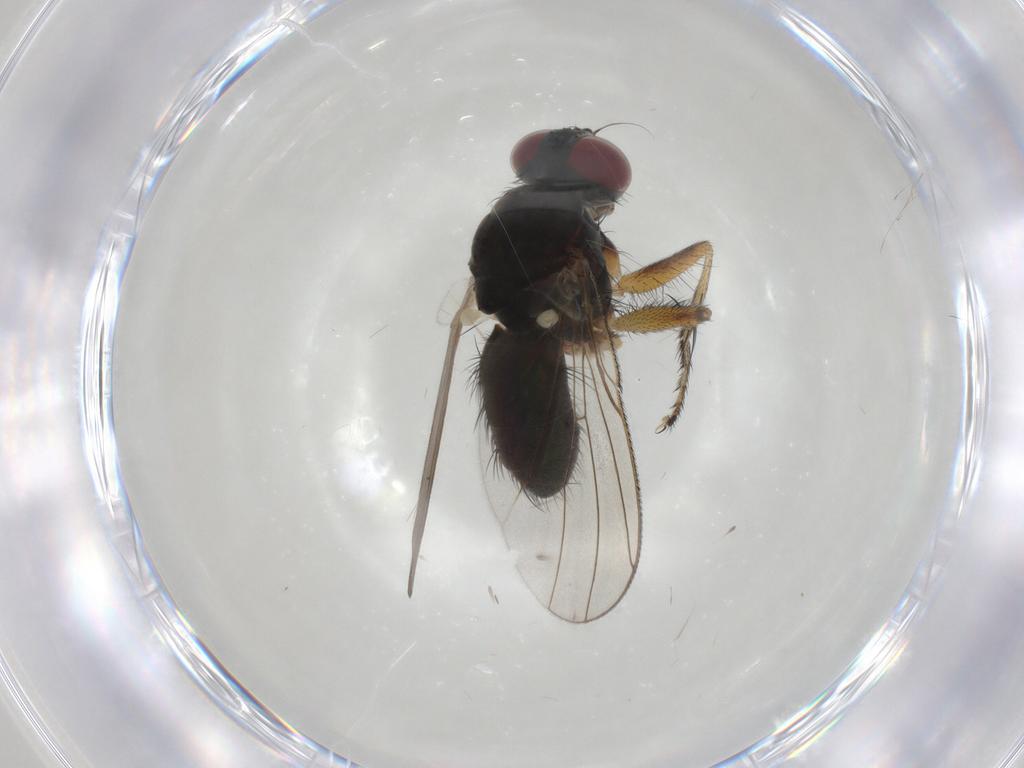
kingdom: Animalia
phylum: Arthropoda
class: Insecta
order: Diptera
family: Muscidae
